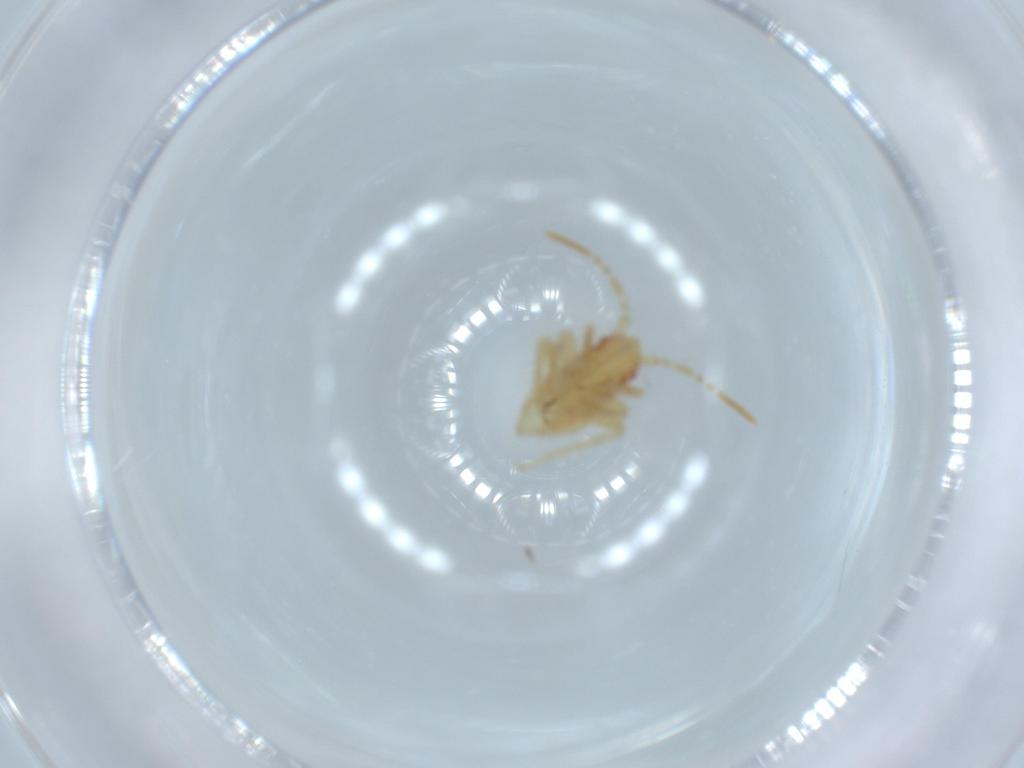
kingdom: Animalia
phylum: Arthropoda
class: Insecta
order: Hemiptera
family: Miridae
